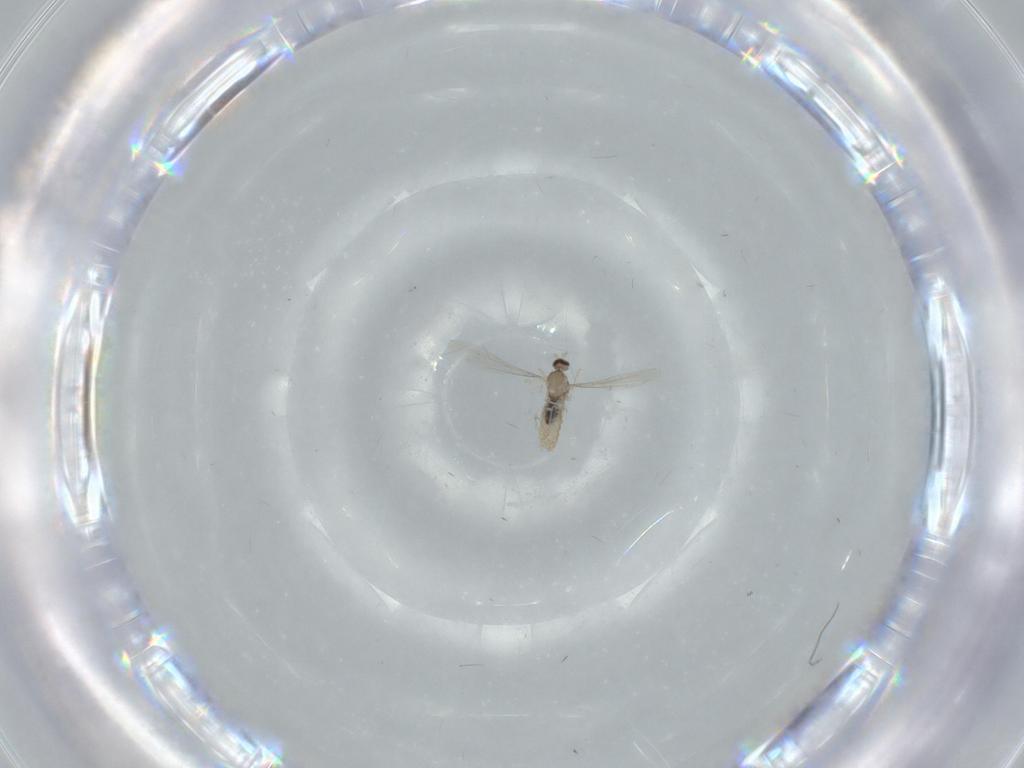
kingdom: Animalia
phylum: Arthropoda
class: Insecta
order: Diptera
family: Cecidomyiidae
